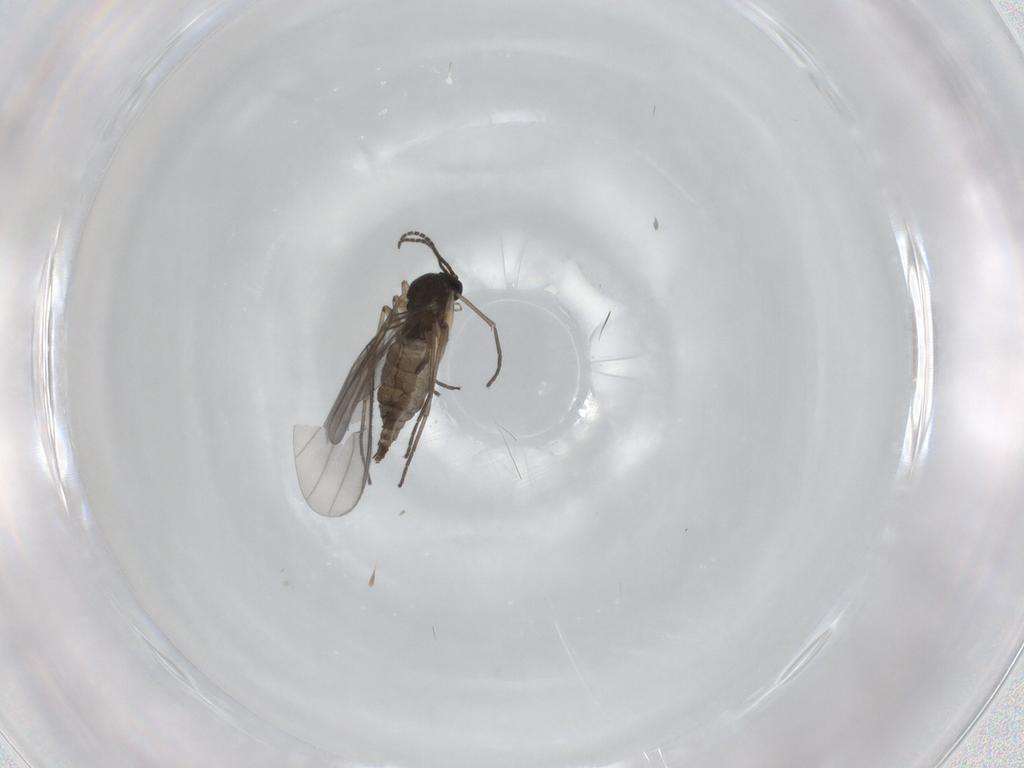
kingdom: Animalia
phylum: Arthropoda
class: Insecta
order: Diptera
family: Sciaridae
